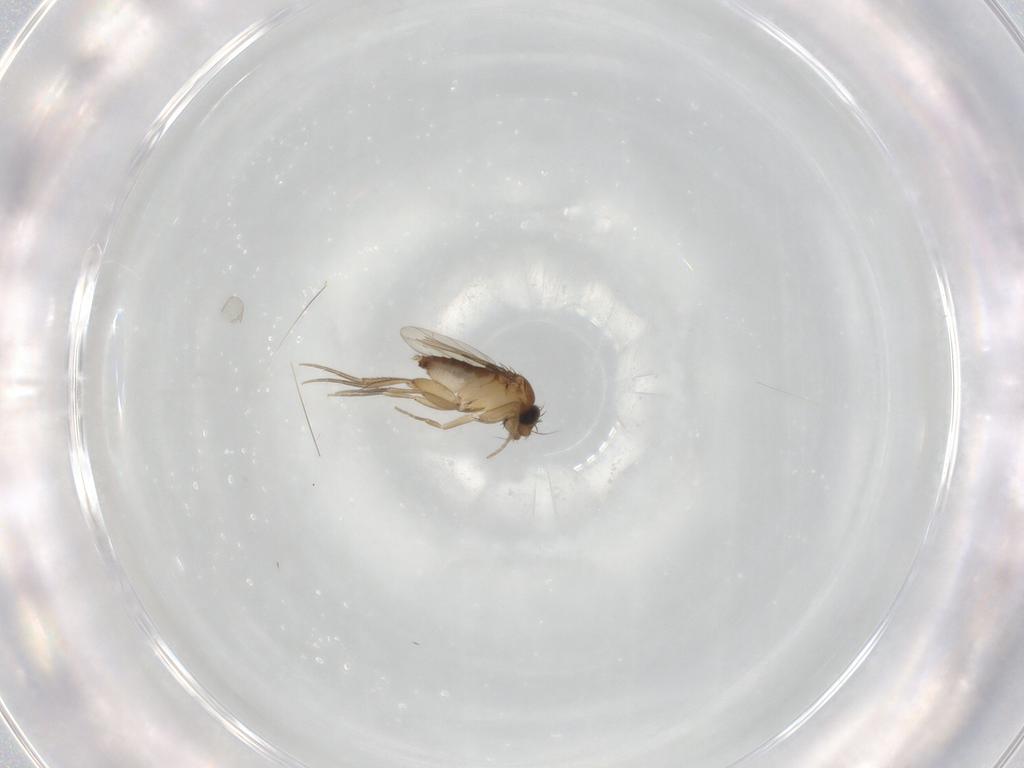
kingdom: Animalia
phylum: Arthropoda
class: Insecta
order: Diptera
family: Phoridae
